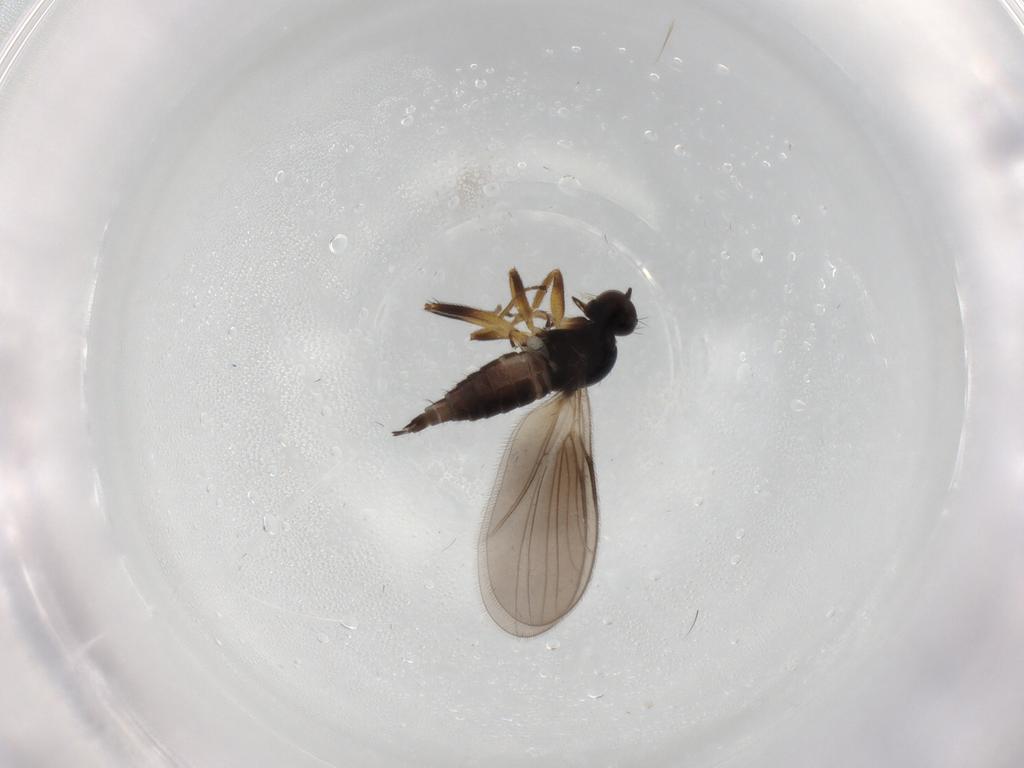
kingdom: Animalia
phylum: Arthropoda
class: Insecta
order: Diptera
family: Hybotidae
